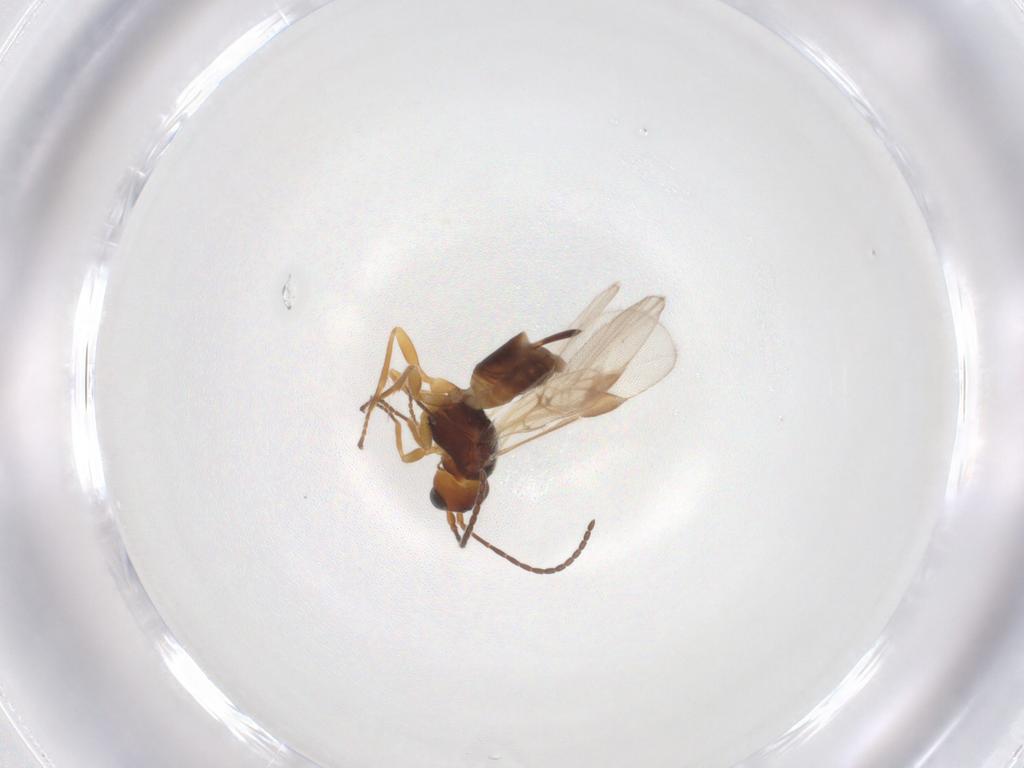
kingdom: Animalia
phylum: Arthropoda
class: Insecta
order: Hymenoptera
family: Braconidae
